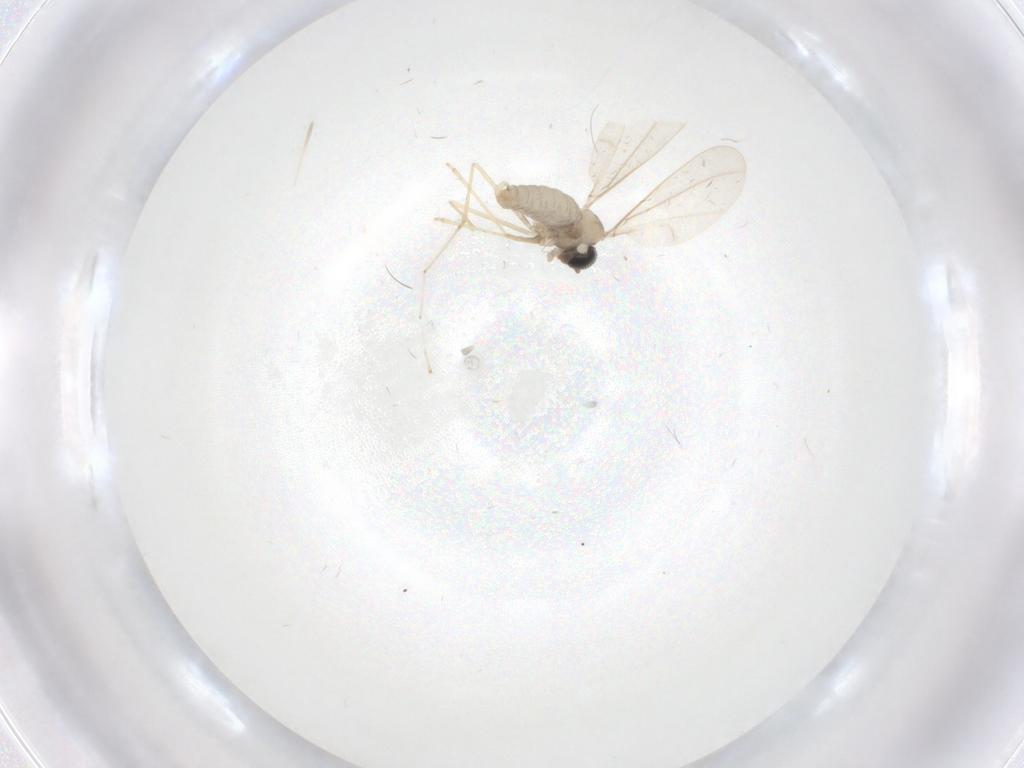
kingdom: Animalia
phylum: Arthropoda
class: Insecta
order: Diptera
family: Cecidomyiidae
